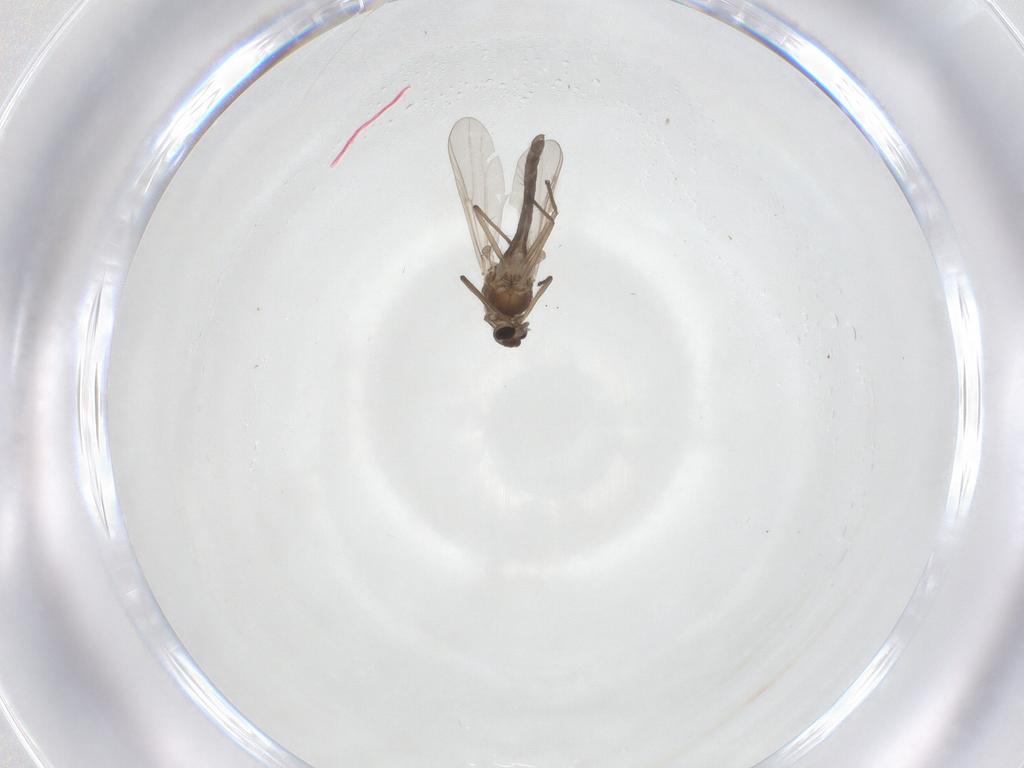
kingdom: Animalia
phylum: Arthropoda
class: Insecta
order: Diptera
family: Chironomidae
